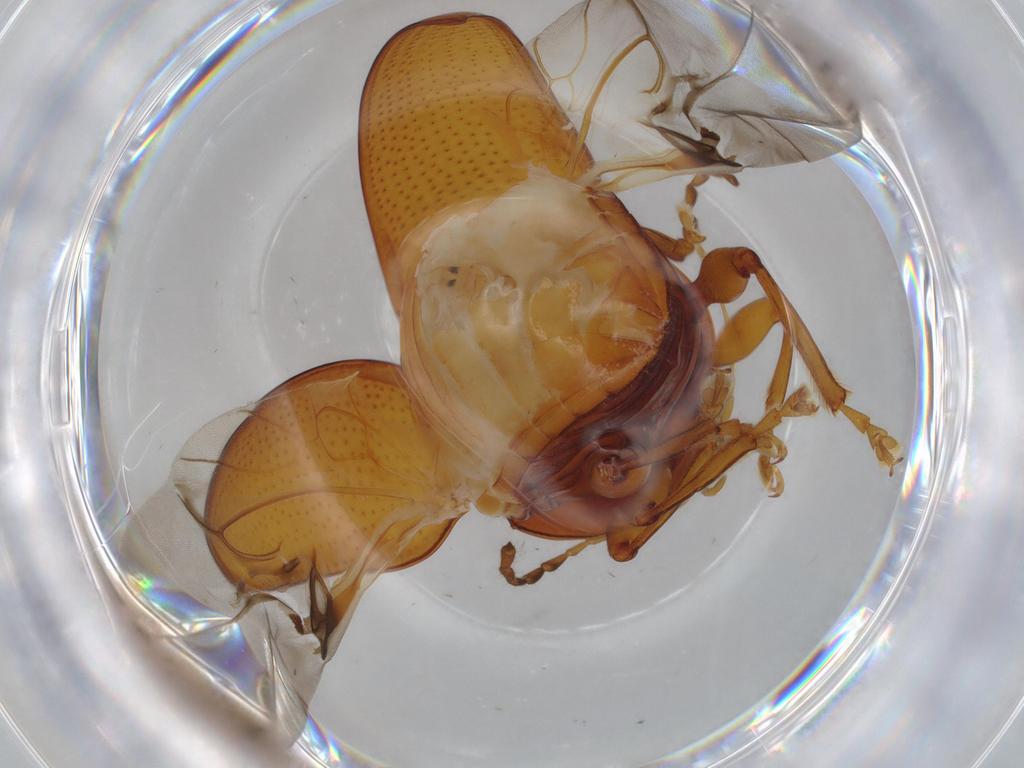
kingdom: Animalia
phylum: Arthropoda
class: Insecta
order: Coleoptera
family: Chrysomelidae
